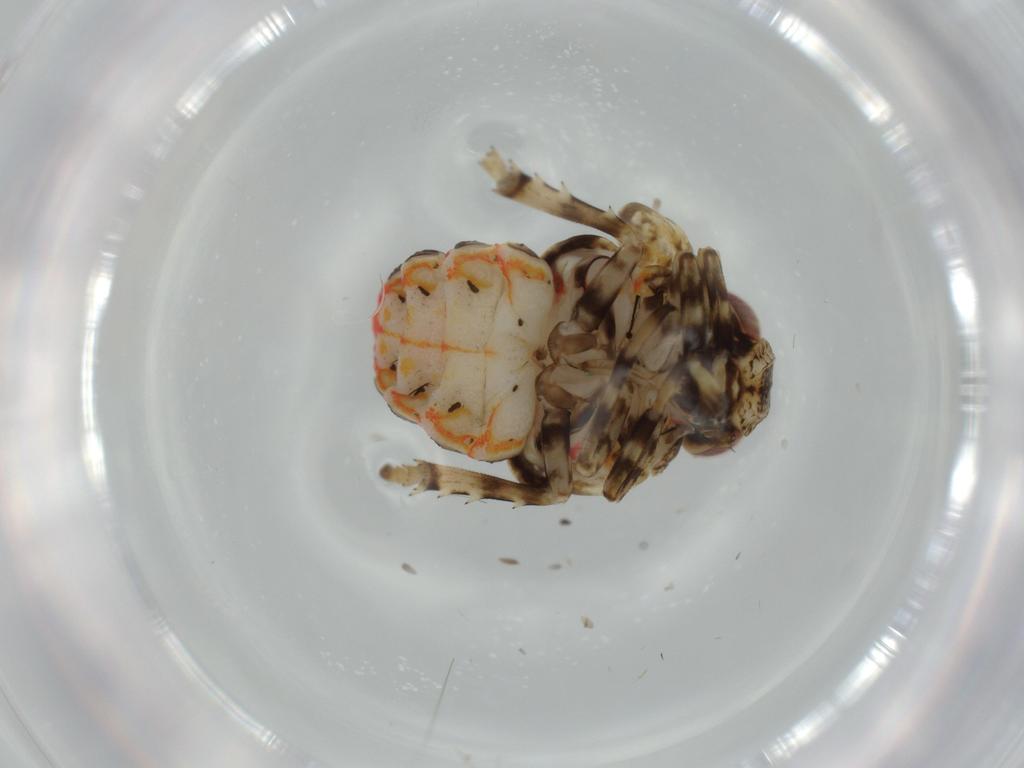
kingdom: Animalia
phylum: Arthropoda
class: Insecta
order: Hemiptera
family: Issidae
